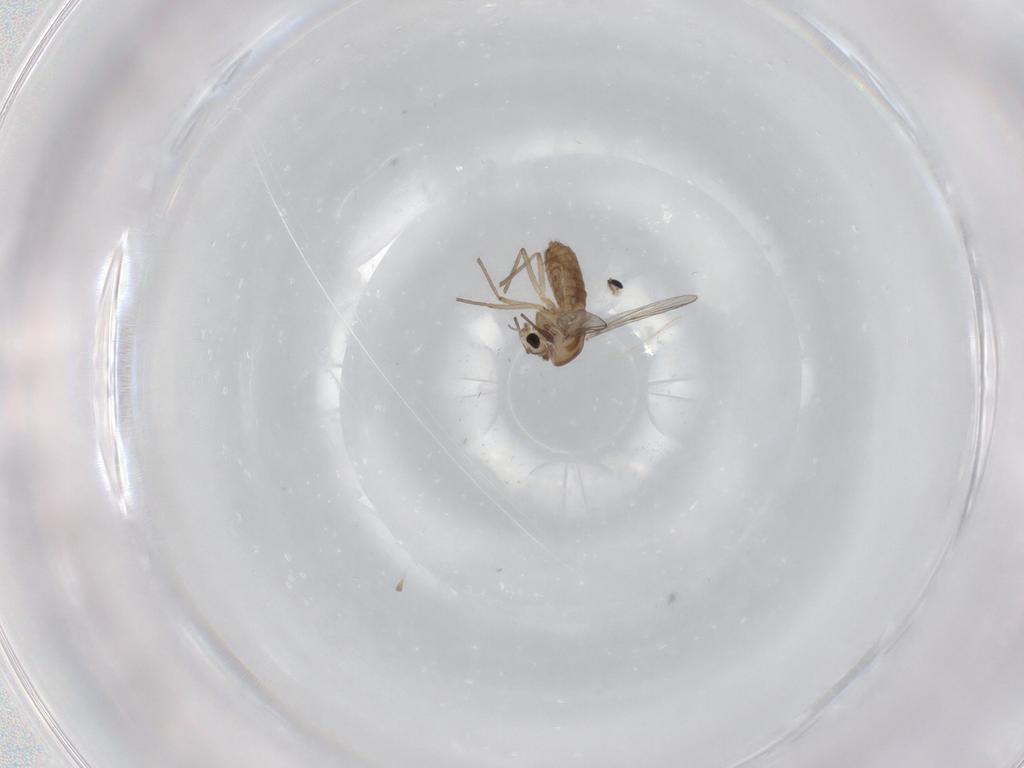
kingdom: Animalia
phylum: Arthropoda
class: Insecta
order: Diptera
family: Chironomidae
